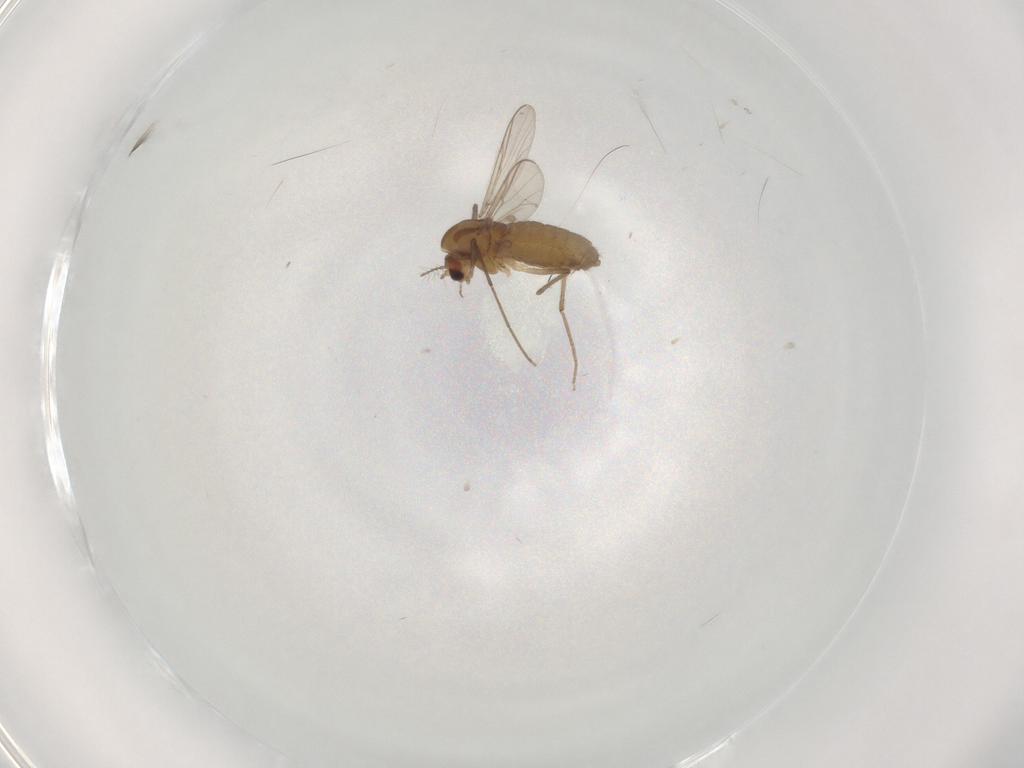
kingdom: Animalia
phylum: Arthropoda
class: Insecta
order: Diptera
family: Chironomidae
